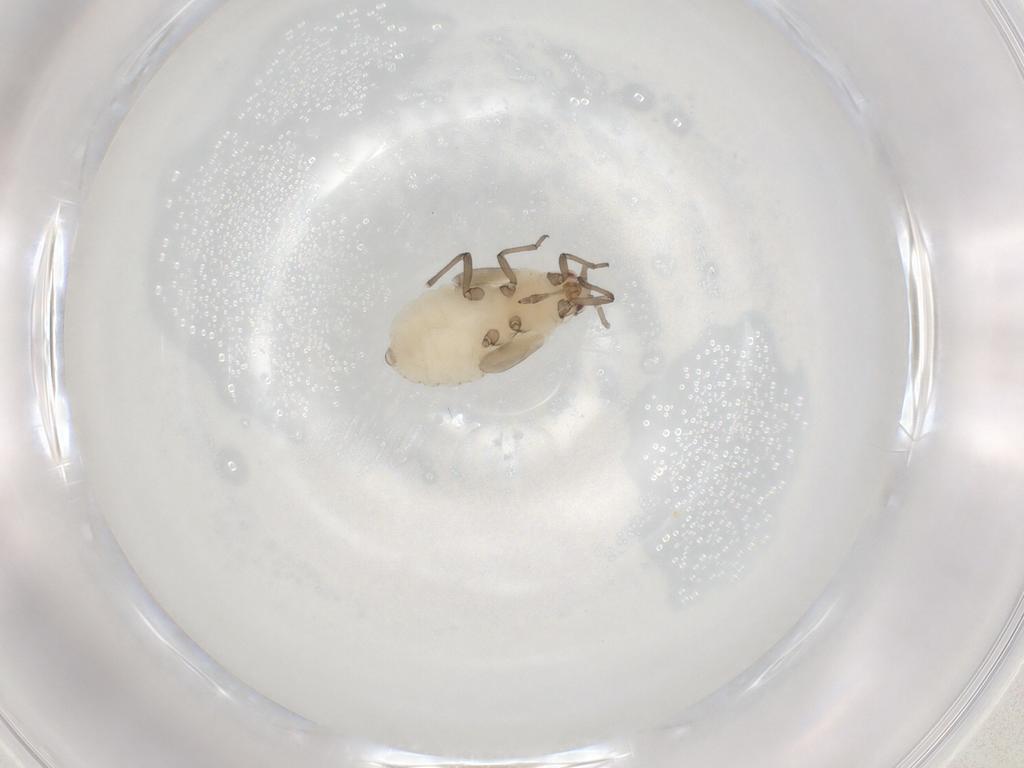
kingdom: Animalia
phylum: Arthropoda
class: Insecta
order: Hemiptera
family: Aphididae
